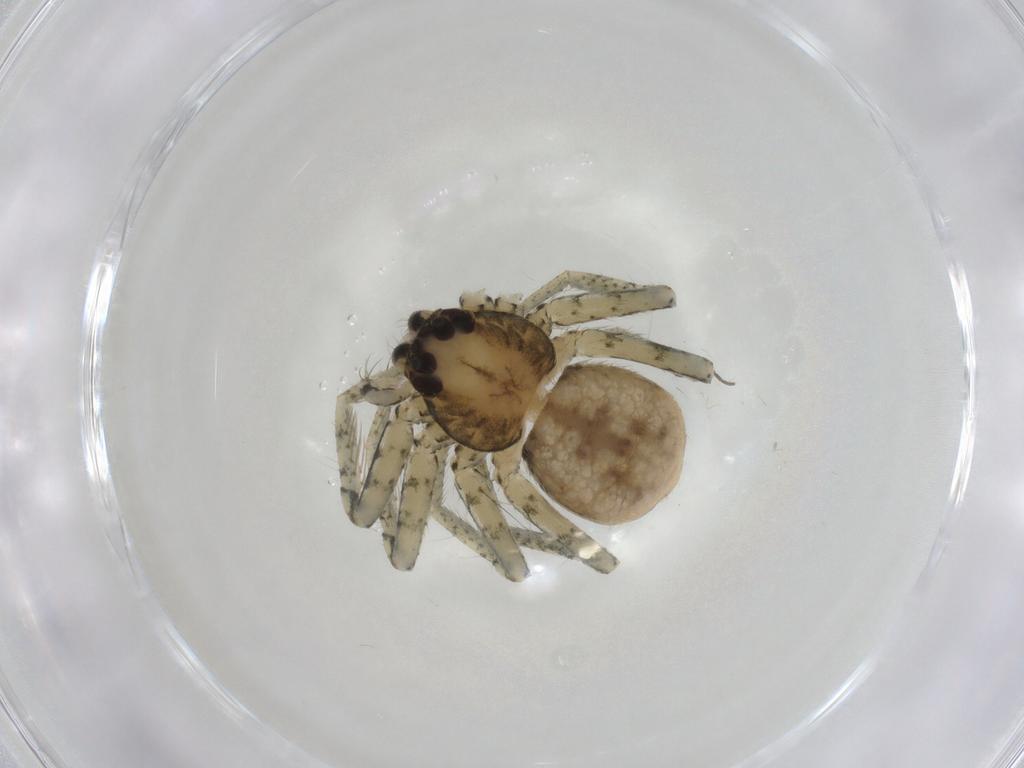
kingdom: Animalia
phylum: Arthropoda
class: Arachnida
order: Araneae
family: Selenopidae
